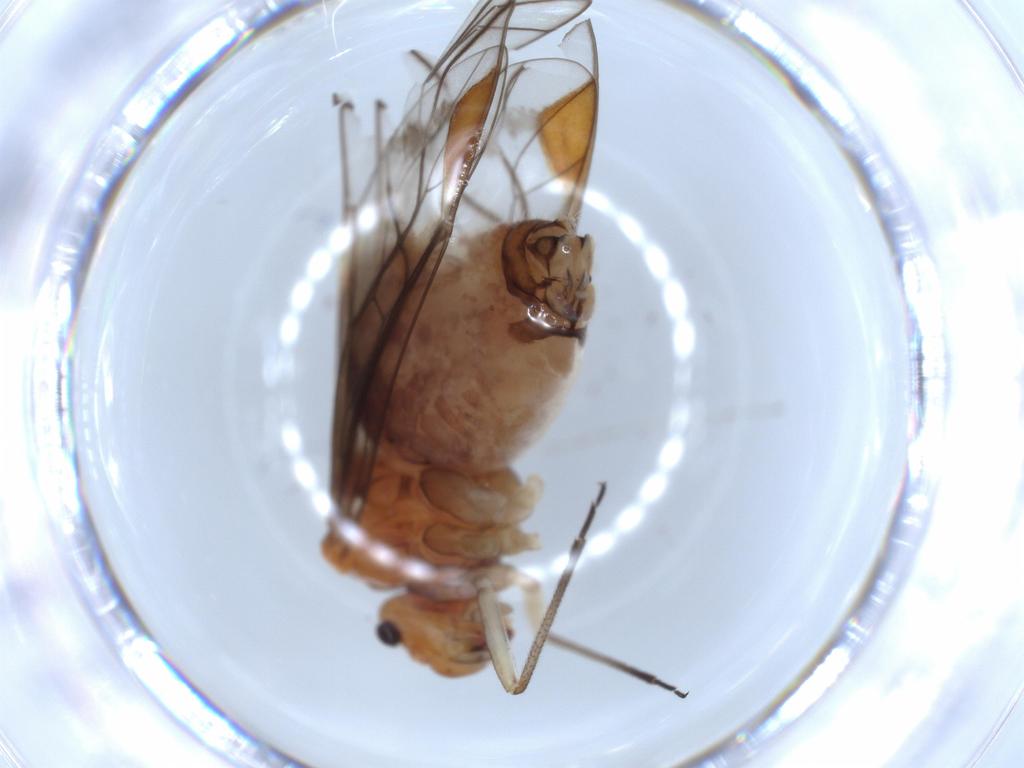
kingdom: Animalia
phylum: Arthropoda
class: Insecta
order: Psocodea
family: Psocidae
